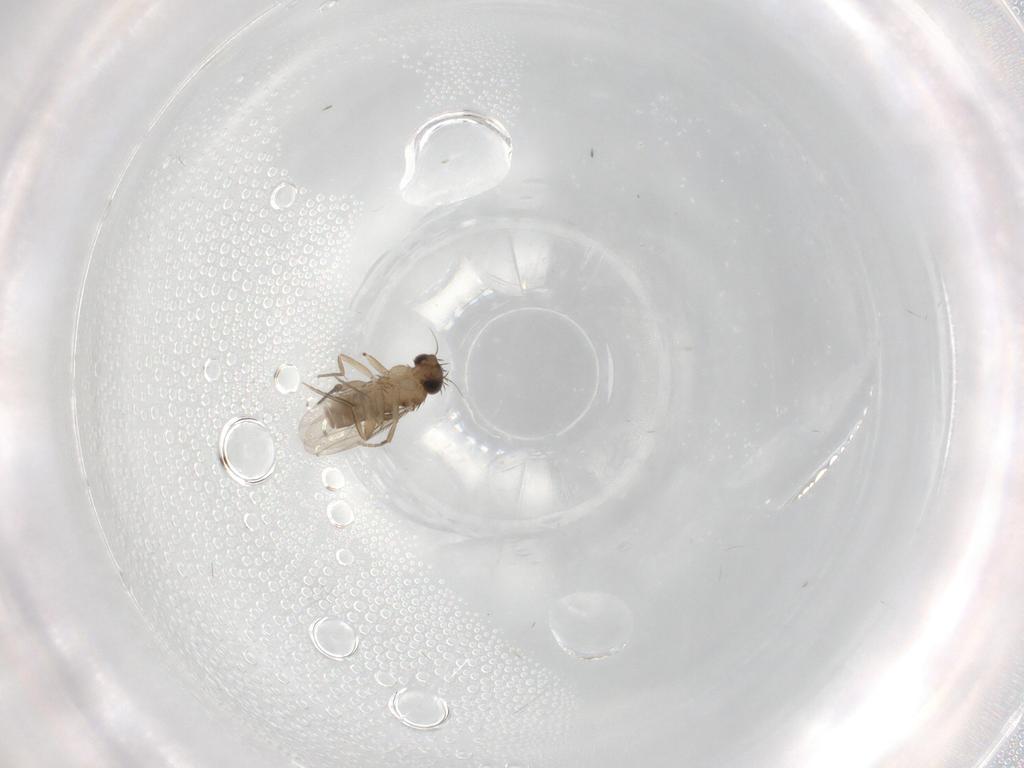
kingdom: Animalia
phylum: Arthropoda
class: Insecta
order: Diptera
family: Phoridae
